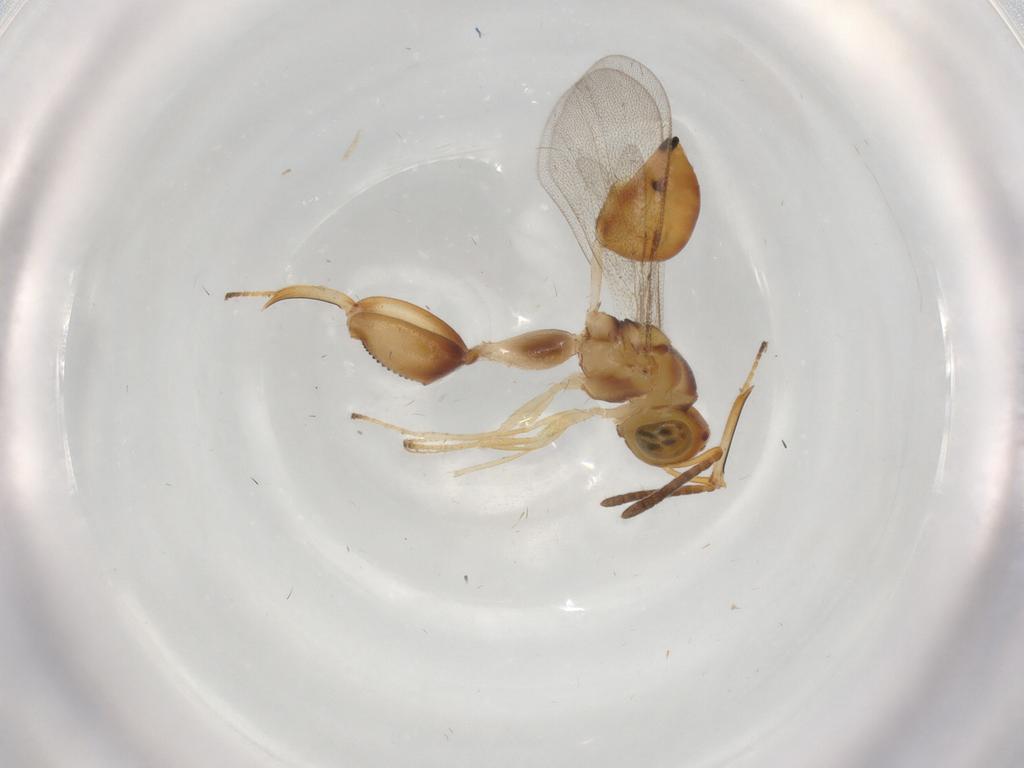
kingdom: Animalia
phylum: Arthropoda
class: Insecta
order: Hymenoptera
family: Chalcididae
